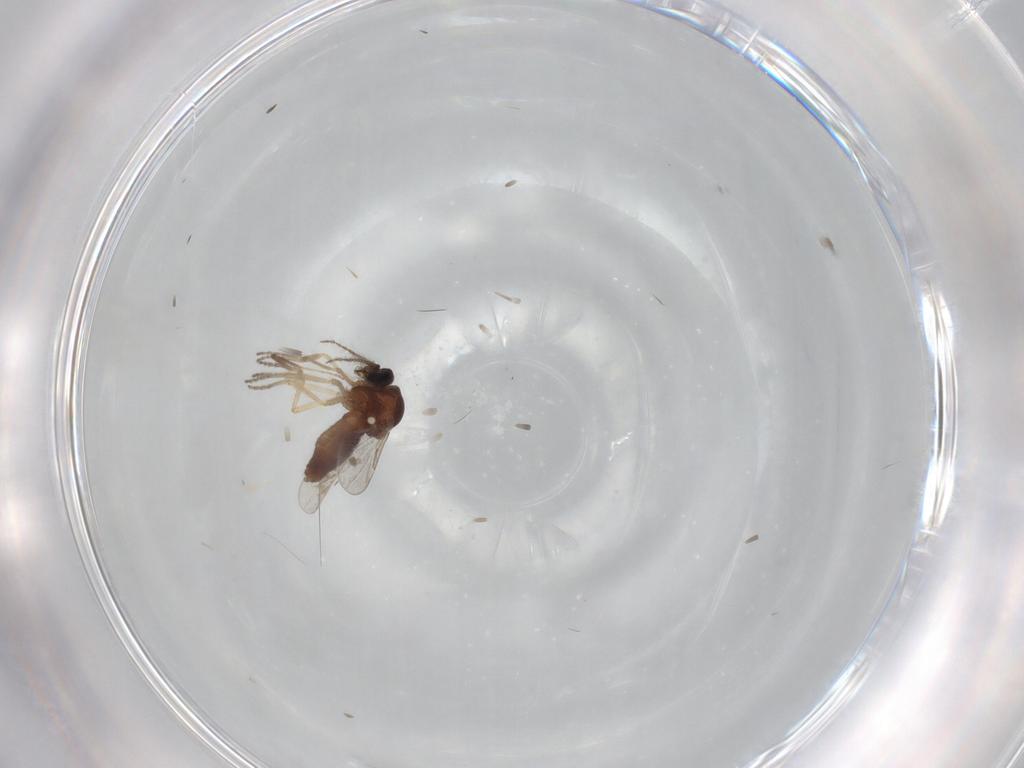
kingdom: Animalia
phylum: Arthropoda
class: Insecta
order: Diptera
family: Ceratopogonidae
